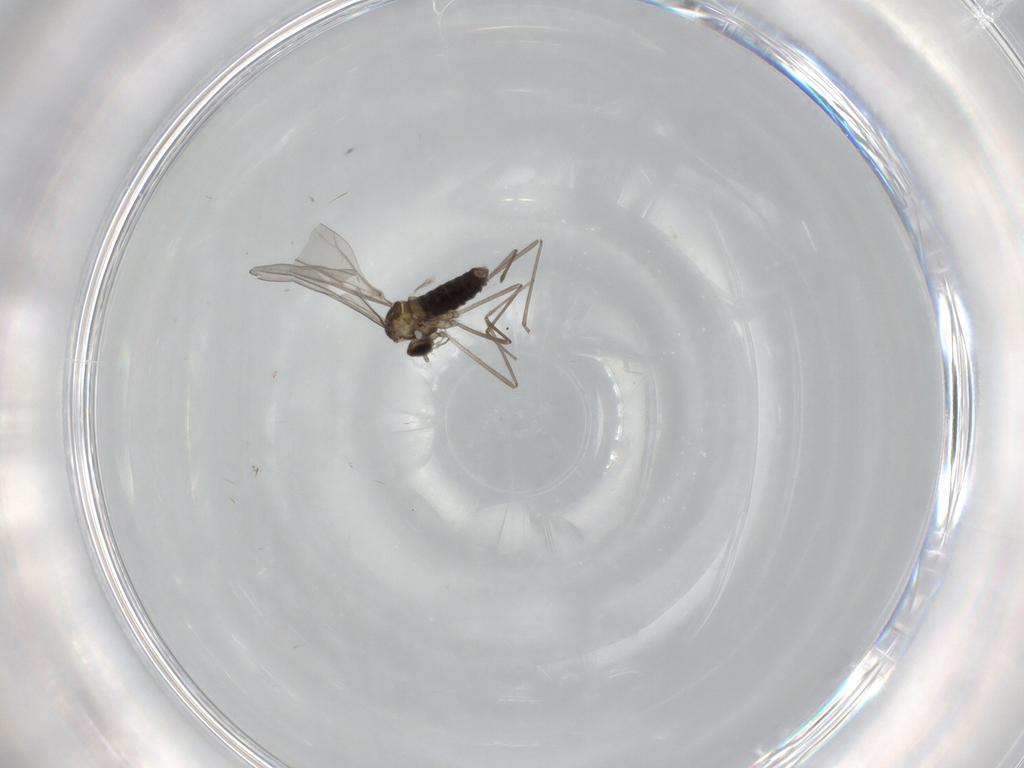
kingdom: Animalia
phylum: Arthropoda
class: Insecta
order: Diptera
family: Cecidomyiidae
